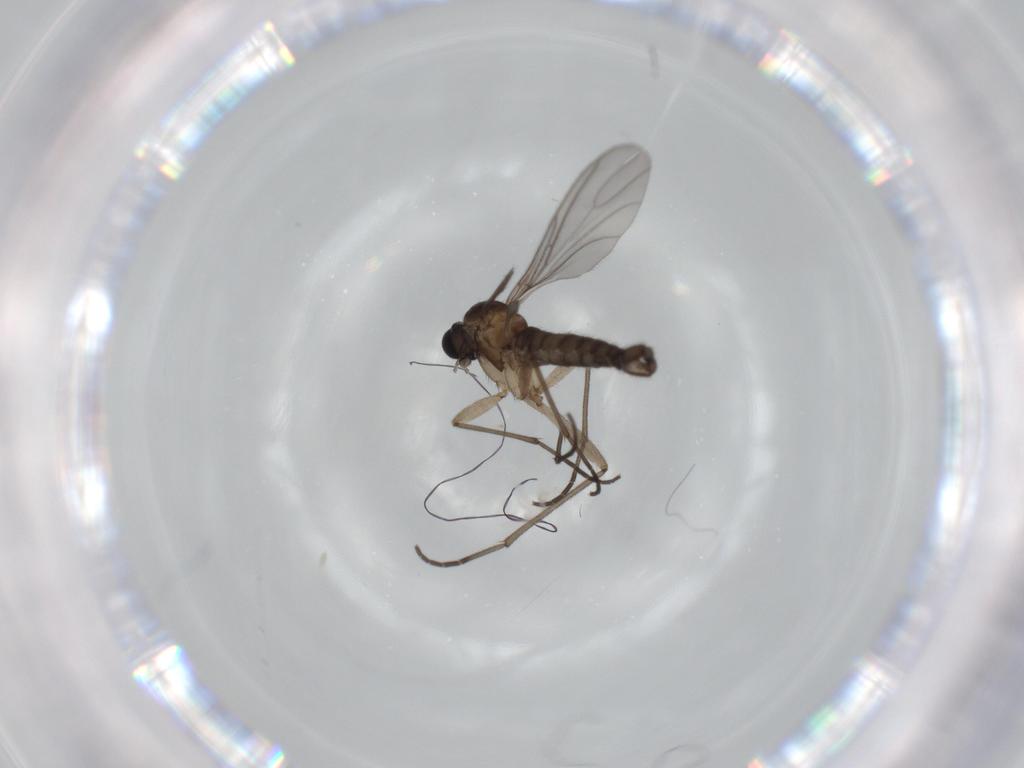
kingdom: Animalia
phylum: Arthropoda
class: Insecta
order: Diptera
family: Sciaridae
